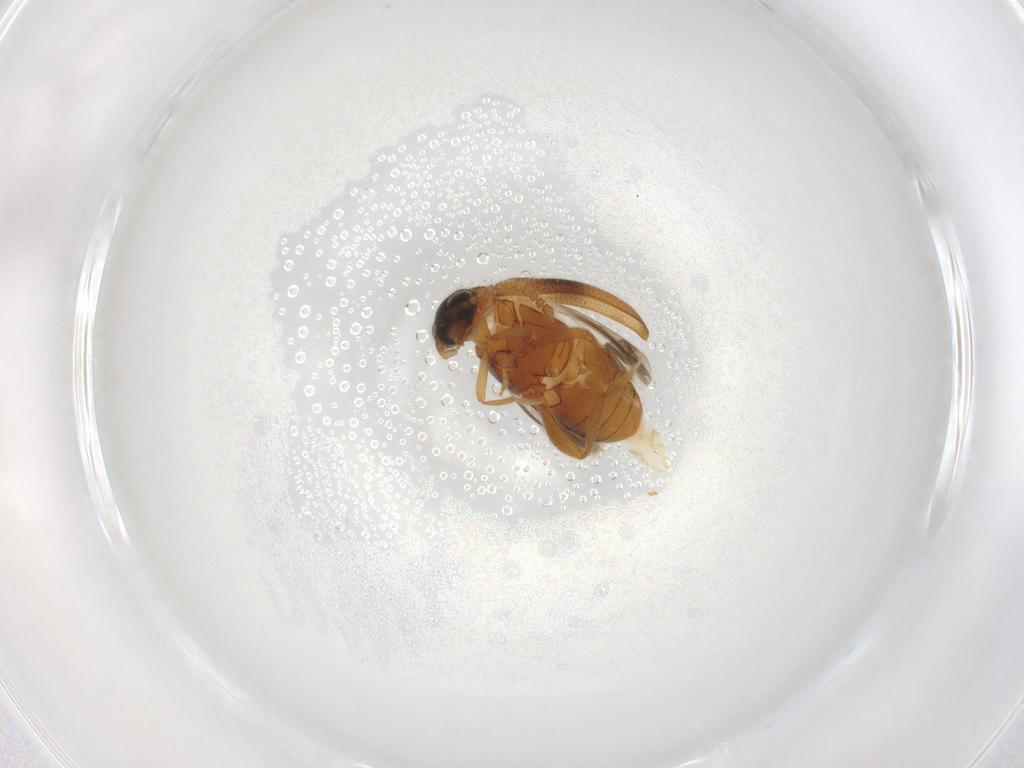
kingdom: Animalia
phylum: Arthropoda
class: Insecta
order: Coleoptera
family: Aderidae
